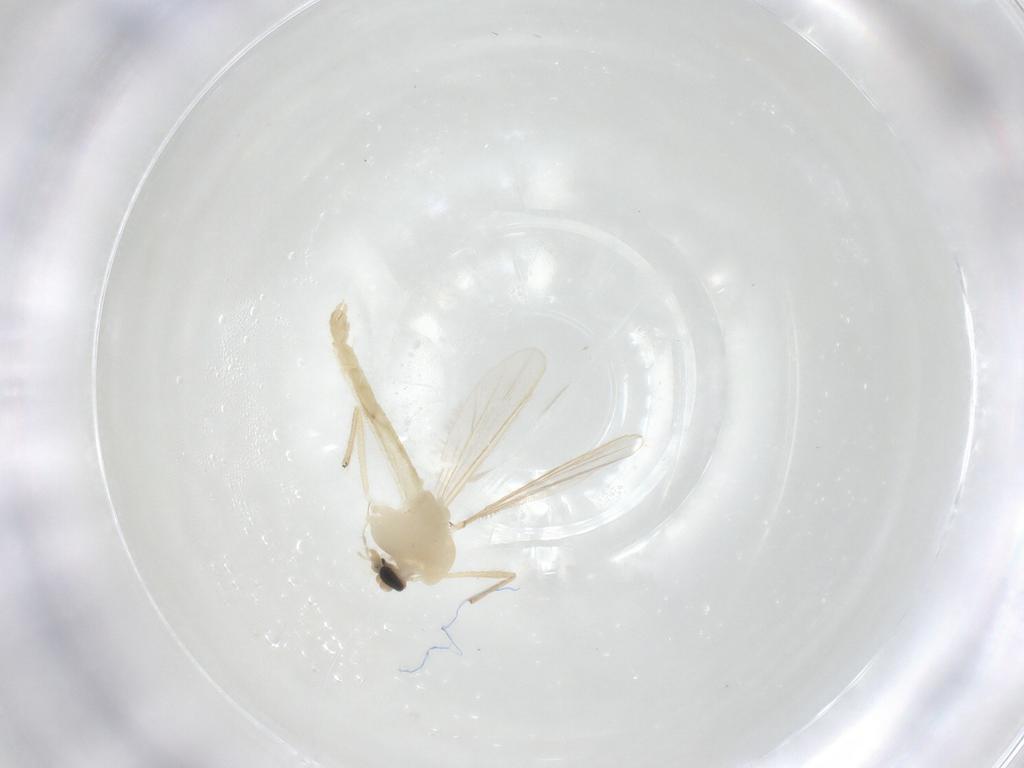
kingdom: Animalia
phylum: Arthropoda
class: Insecta
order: Diptera
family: Chironomidae
